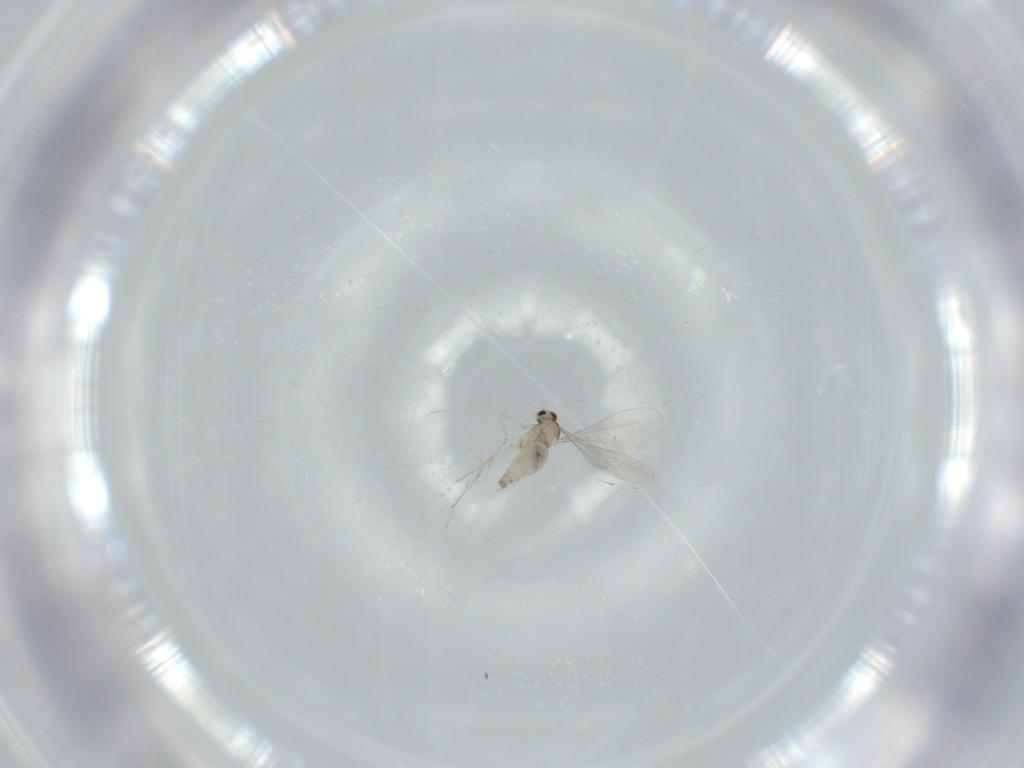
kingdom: Animalia
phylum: Arthropoda
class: Insecta
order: Diptera
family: Cecidomyiidae
